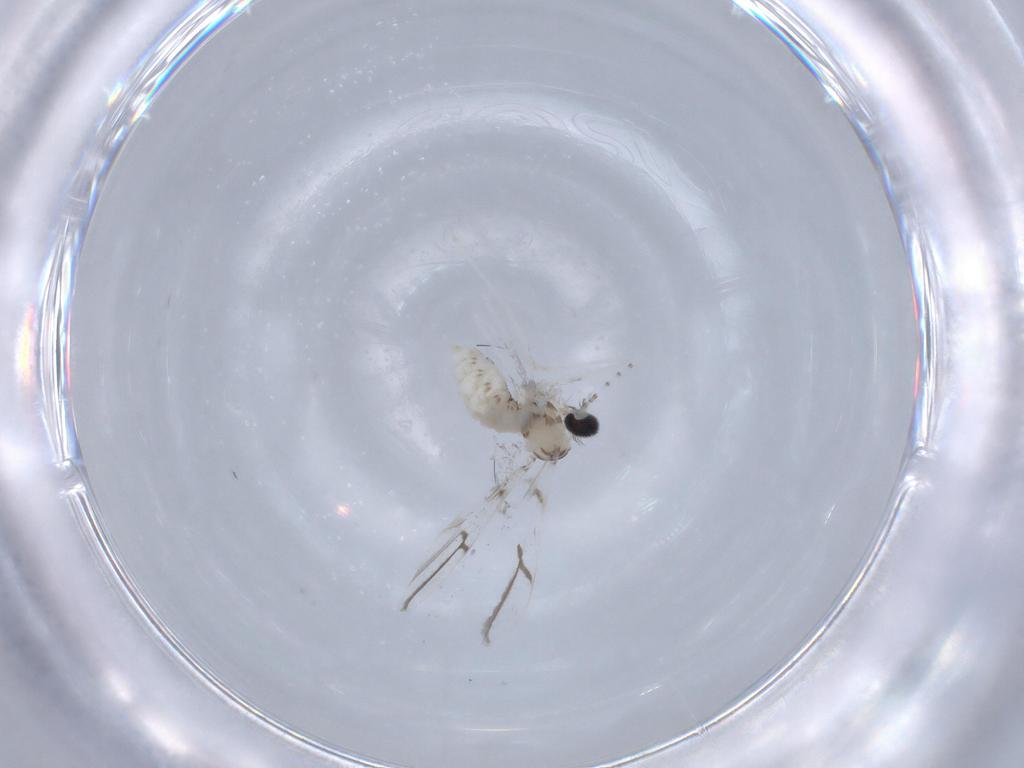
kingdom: Animalia
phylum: Arthropoda
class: Insecta
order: Diptera
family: Cecidomyiidae
